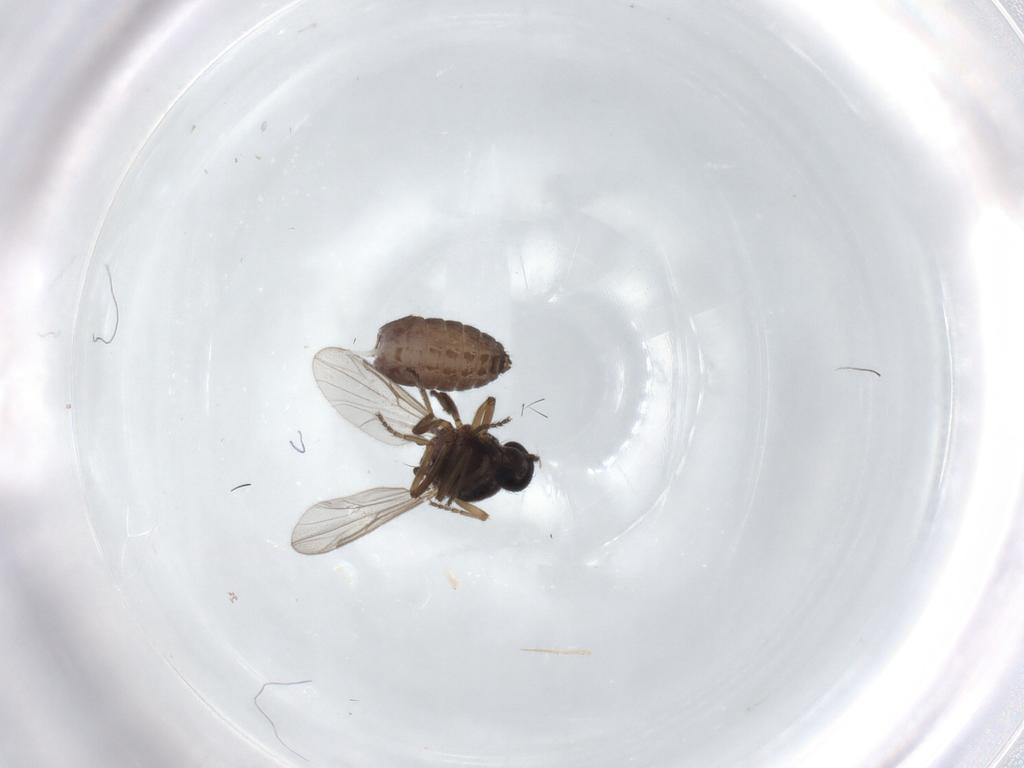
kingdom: Animalia
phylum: Arthropoda
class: Insecta
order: Diptera
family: Ceratopogonidae
